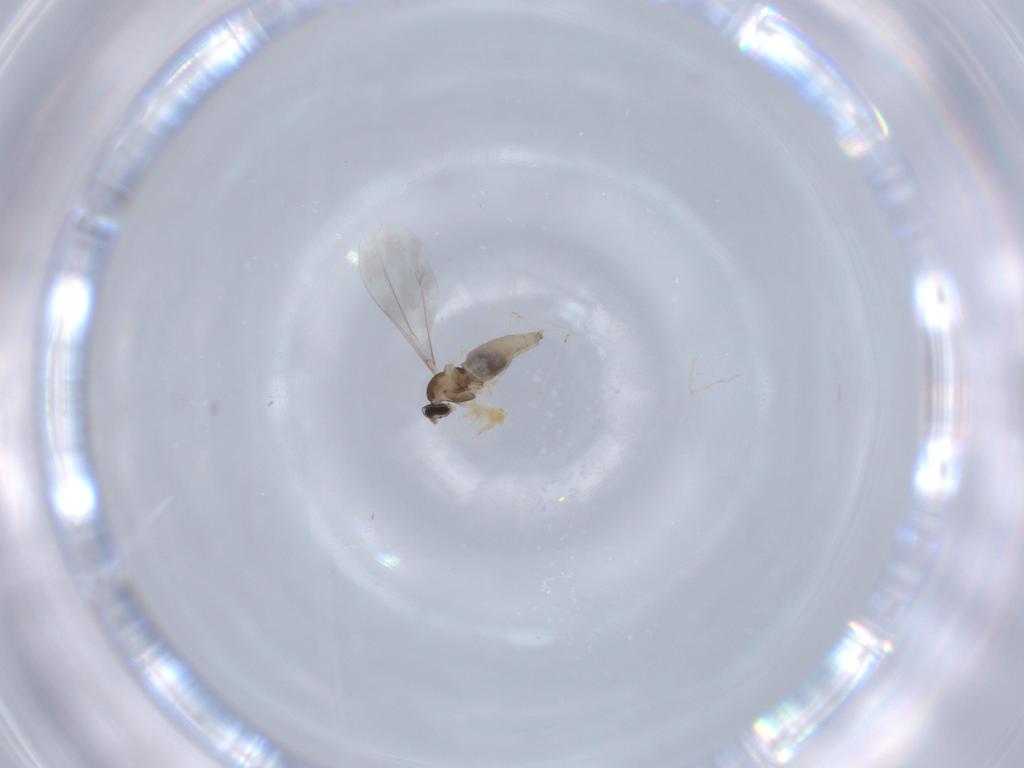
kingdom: Animalia
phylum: Arthropoda
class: Insecta
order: Diptera
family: Cecidomyiidae
